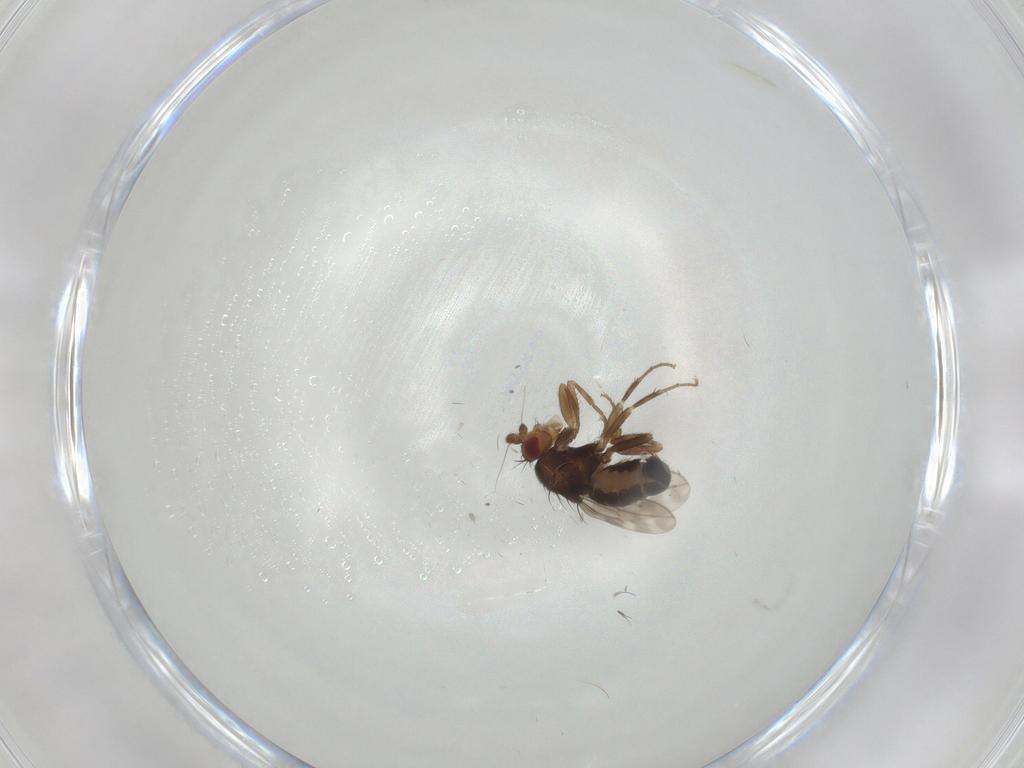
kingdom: Animalia
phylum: Arthropoda
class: Insecta
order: Diptera
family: Sphaeroceridae
